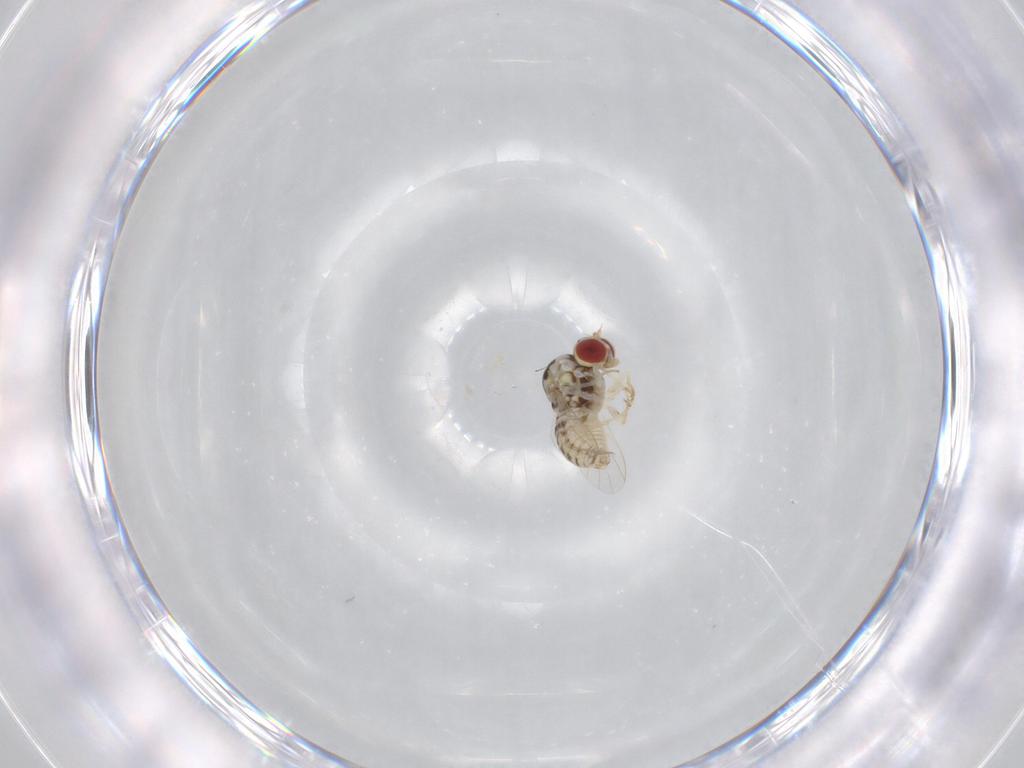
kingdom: Animalia
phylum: Arthropoda
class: Insecta
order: Diptera
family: Bombyliidae
